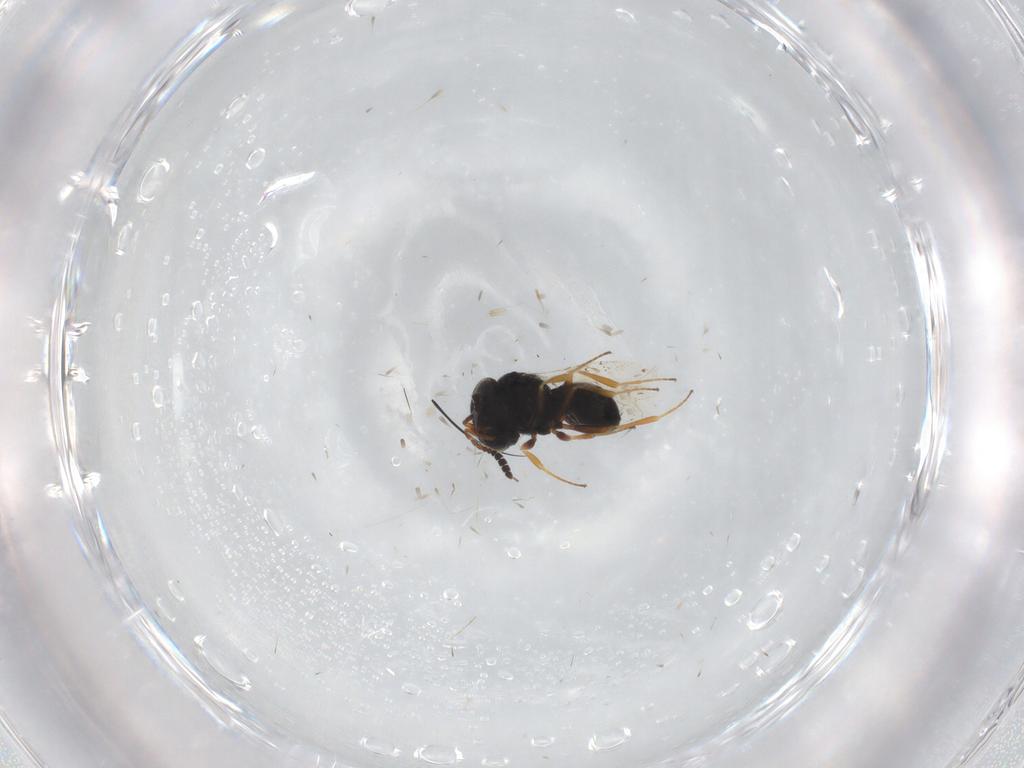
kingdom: Animalia
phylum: Arthropoda
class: Insecta
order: Hymenoptera
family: Scelionidae
